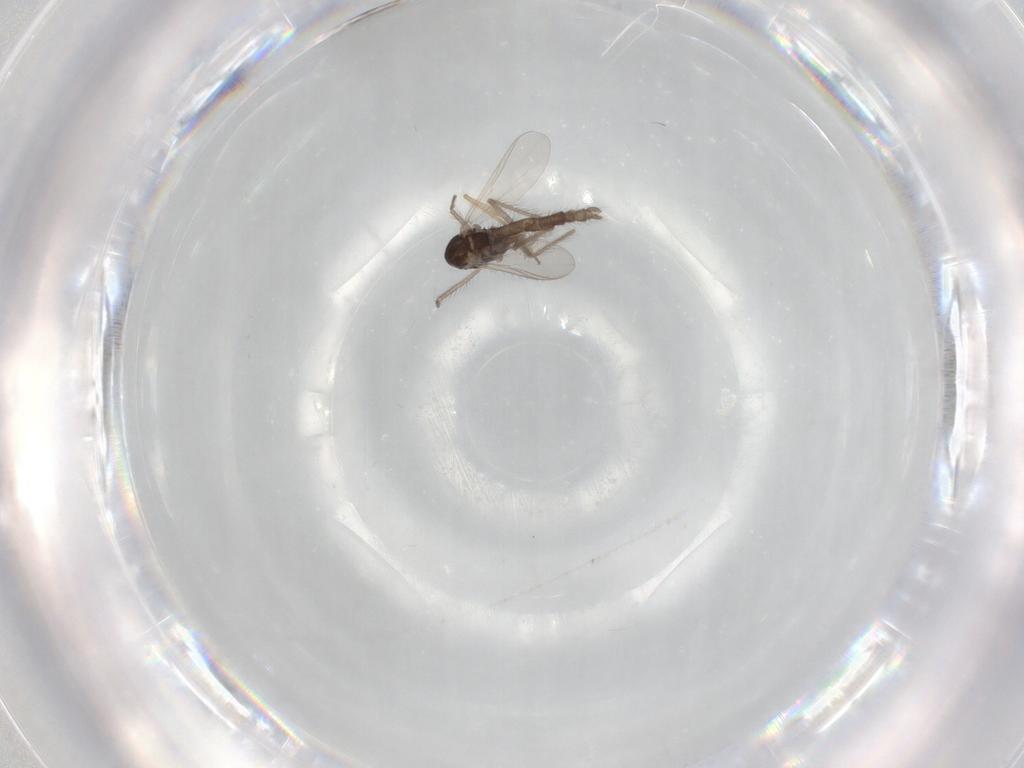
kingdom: Animalia
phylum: Arthropoda
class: Insecta
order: Diptera
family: Chironomidae
